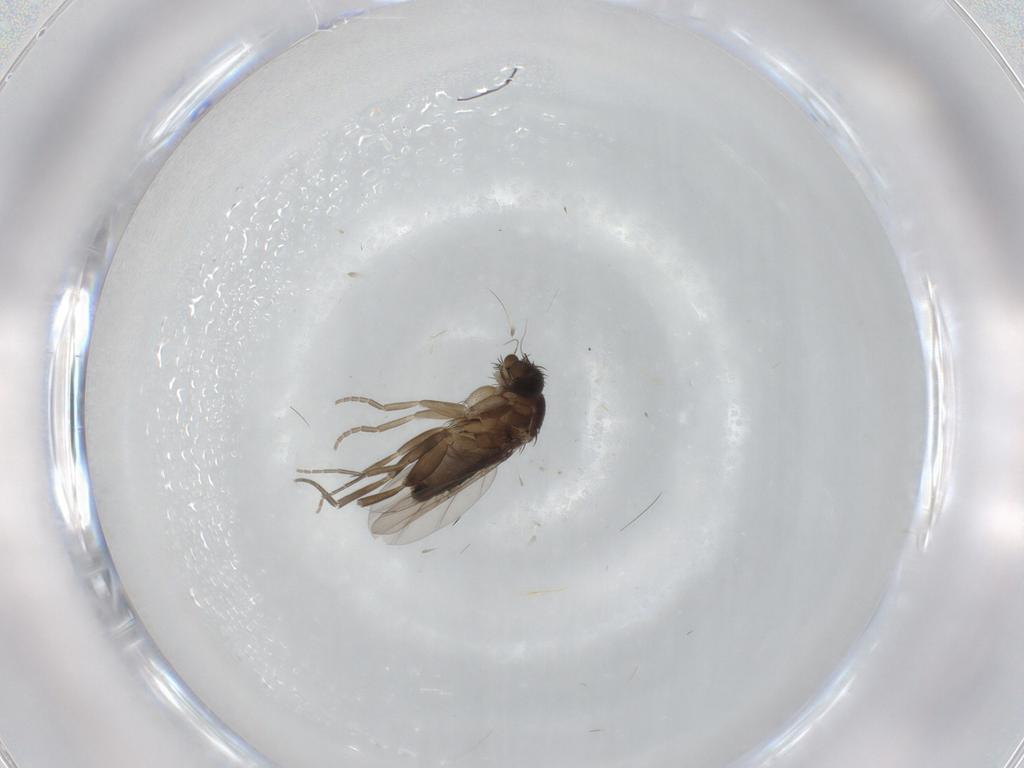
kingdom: Animalia
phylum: Arthropoda
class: Insecta
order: Diptera
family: Phoridae
